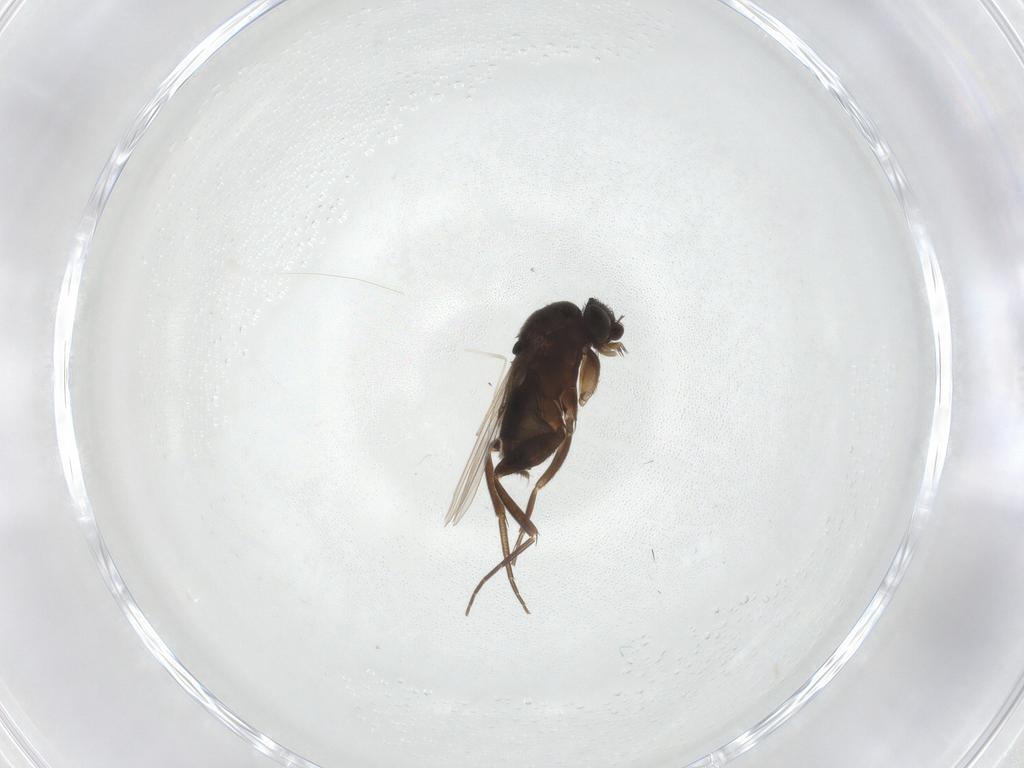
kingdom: Animalia
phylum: Arthropoda
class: Insecta
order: Diptera
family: Phoridae
